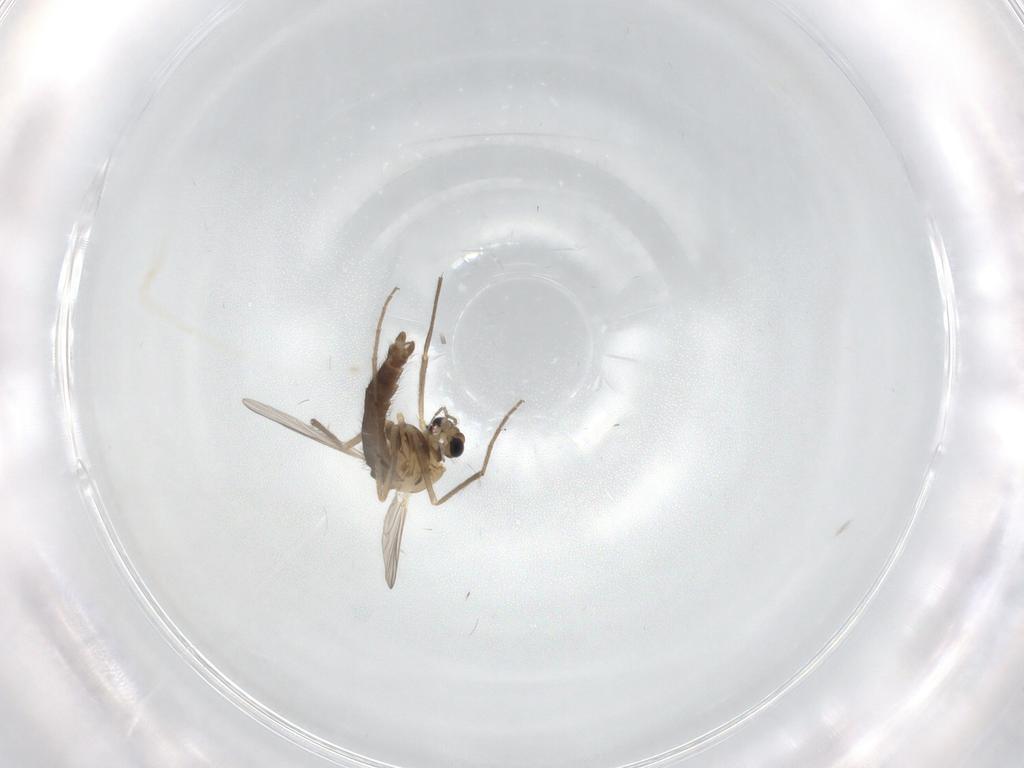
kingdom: Animalia
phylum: Arthropoda
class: Insecta
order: Diptera
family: Chironomidae
